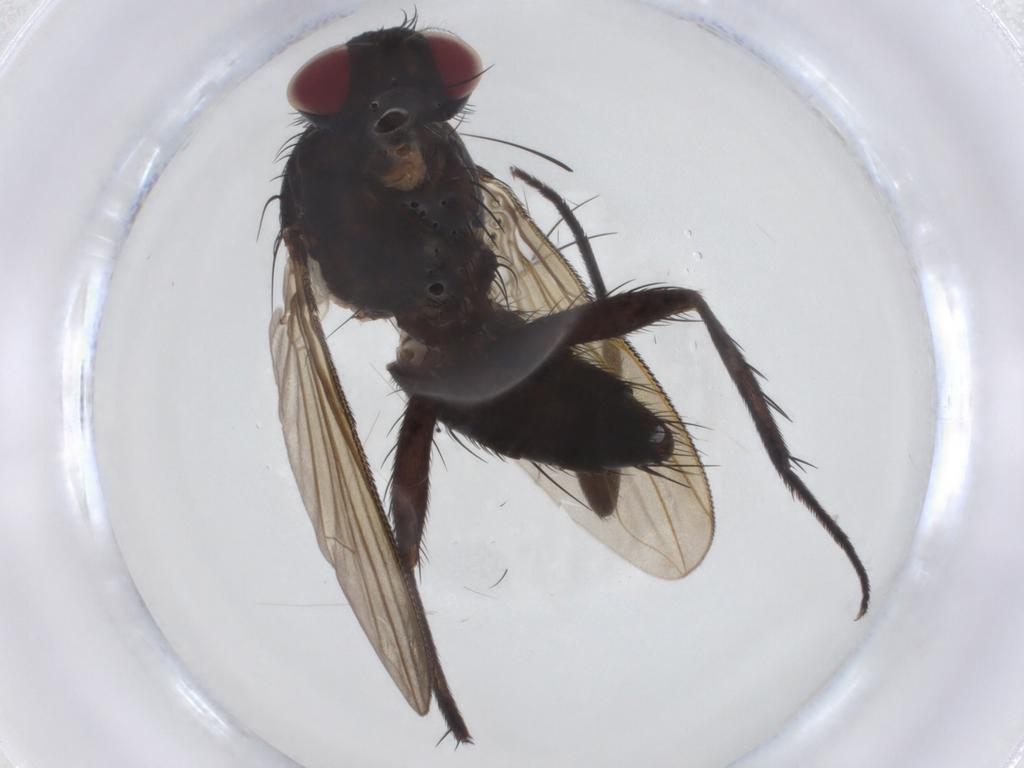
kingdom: Animalia
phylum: Arthropoda
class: Insecta
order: Diptera
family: Tachinidae
